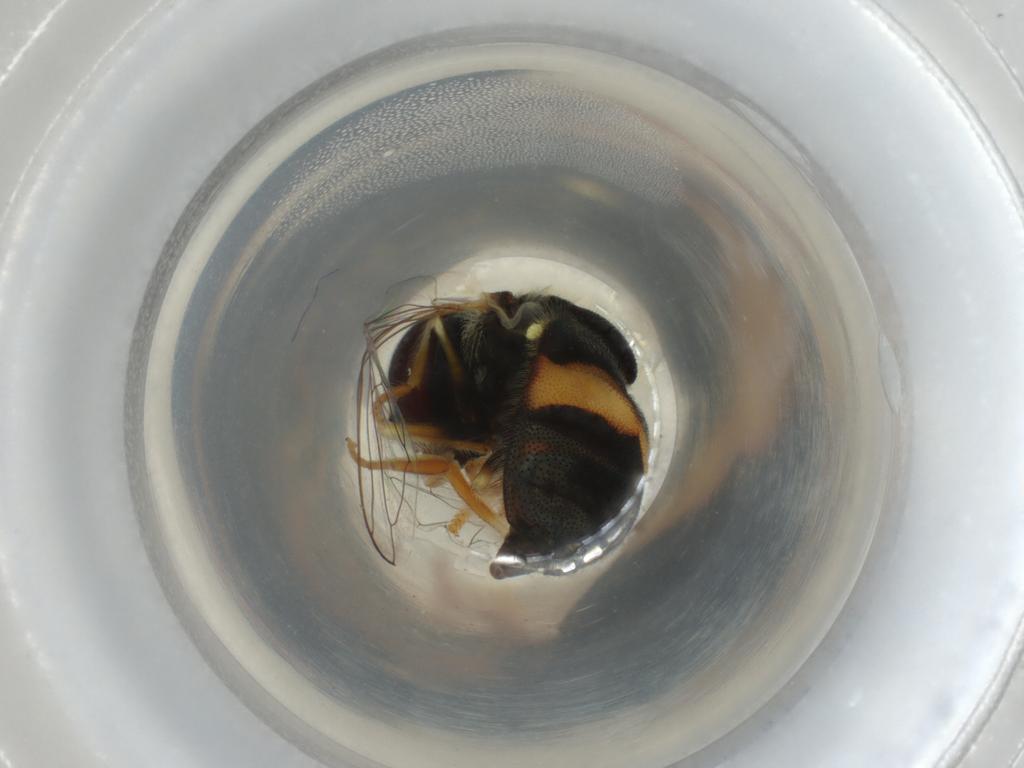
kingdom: Animalia
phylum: Arthropoda
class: Insecta
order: Diptera
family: Syrphidae
